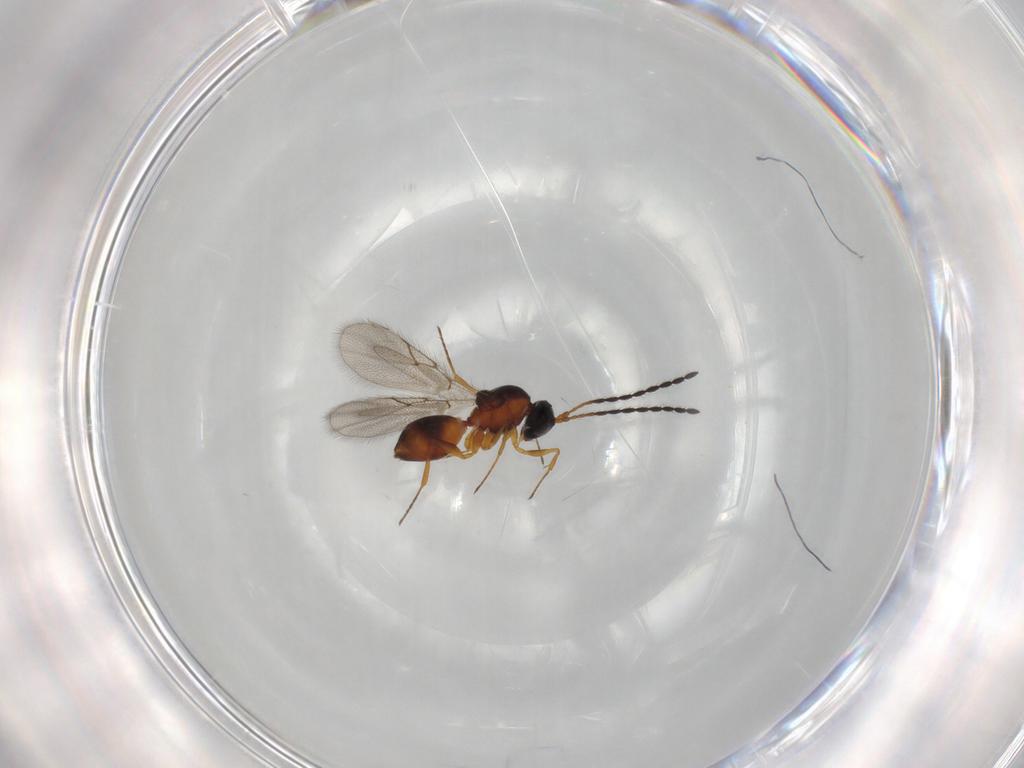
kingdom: Animalia
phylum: Arthropoda
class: Insecta
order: Hymenoptera
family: Figitidae
